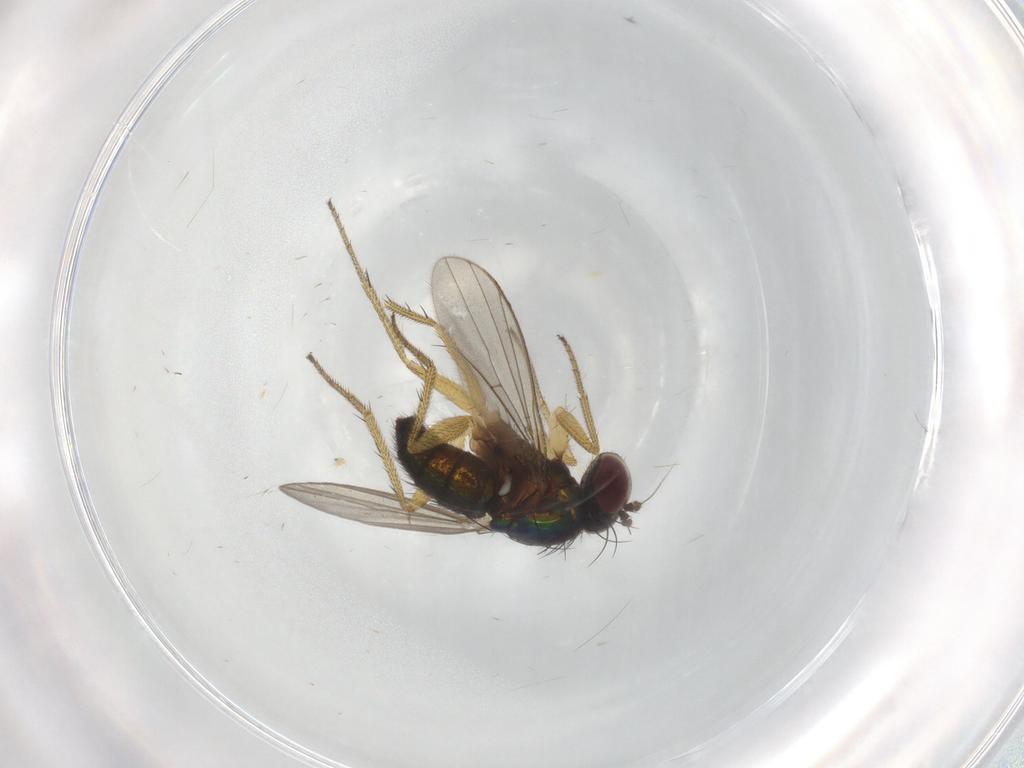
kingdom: Animalia
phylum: Arthropoda
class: Insecta
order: Diptera
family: Dolichopodidae
